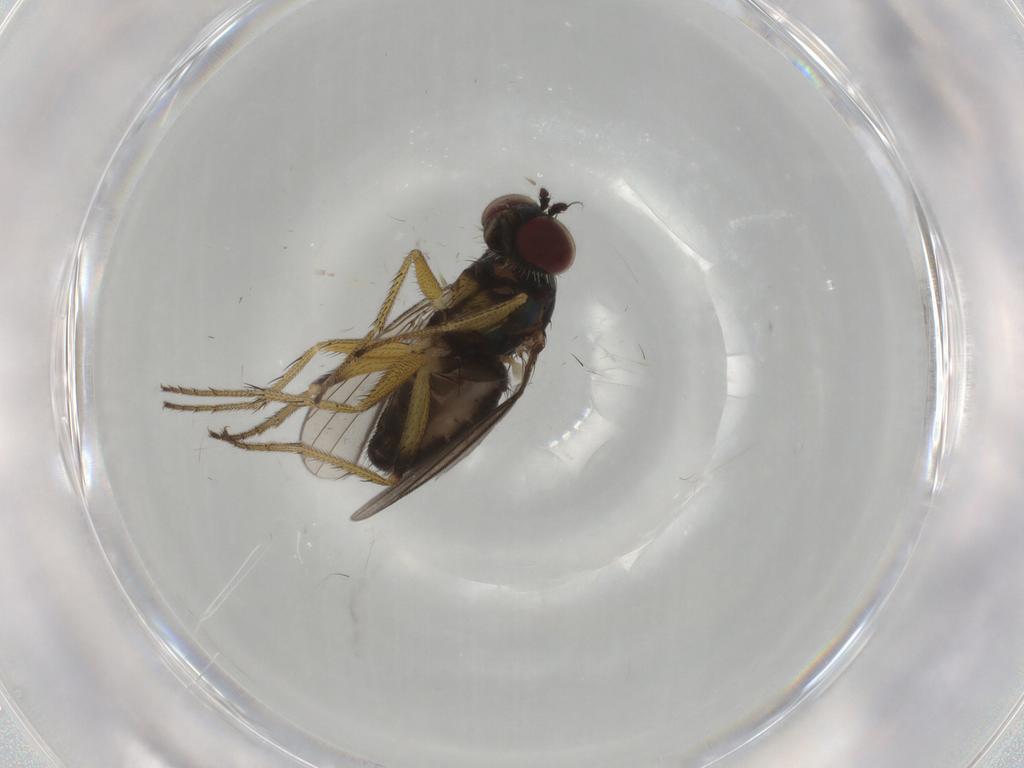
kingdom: Animalia
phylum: Arthropoda
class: Insecta
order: Diptera
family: Dolichopodidae
